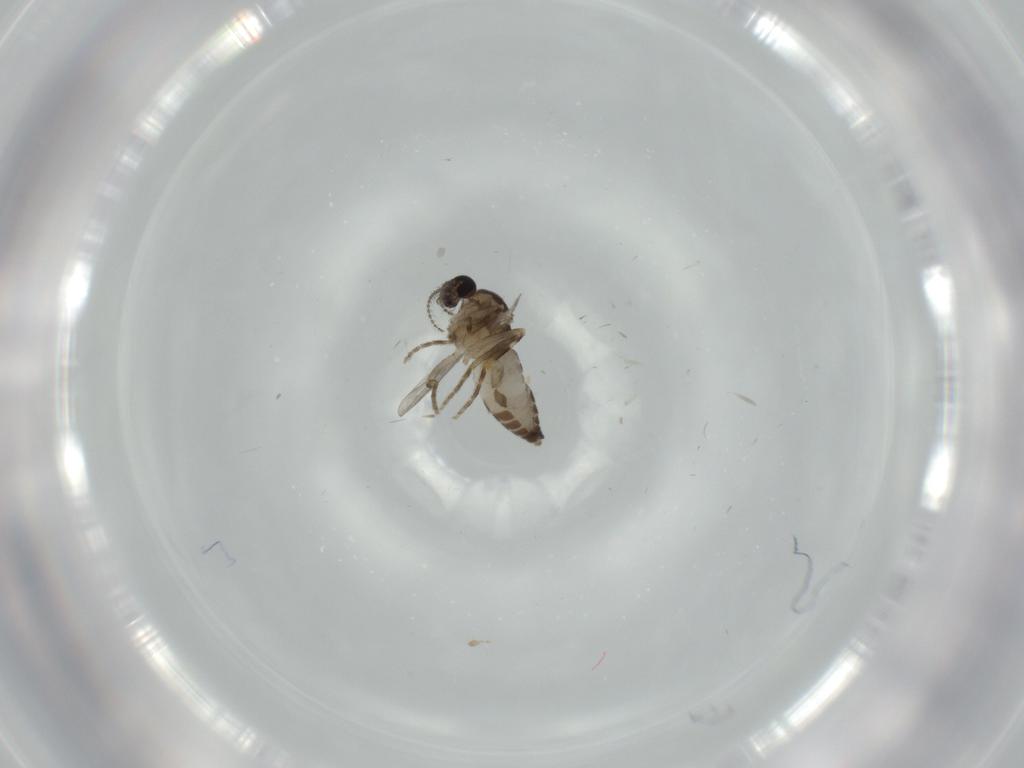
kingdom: Animalia
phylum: Arthropoda
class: Insecta
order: Diptera
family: Ceratopogonidae
